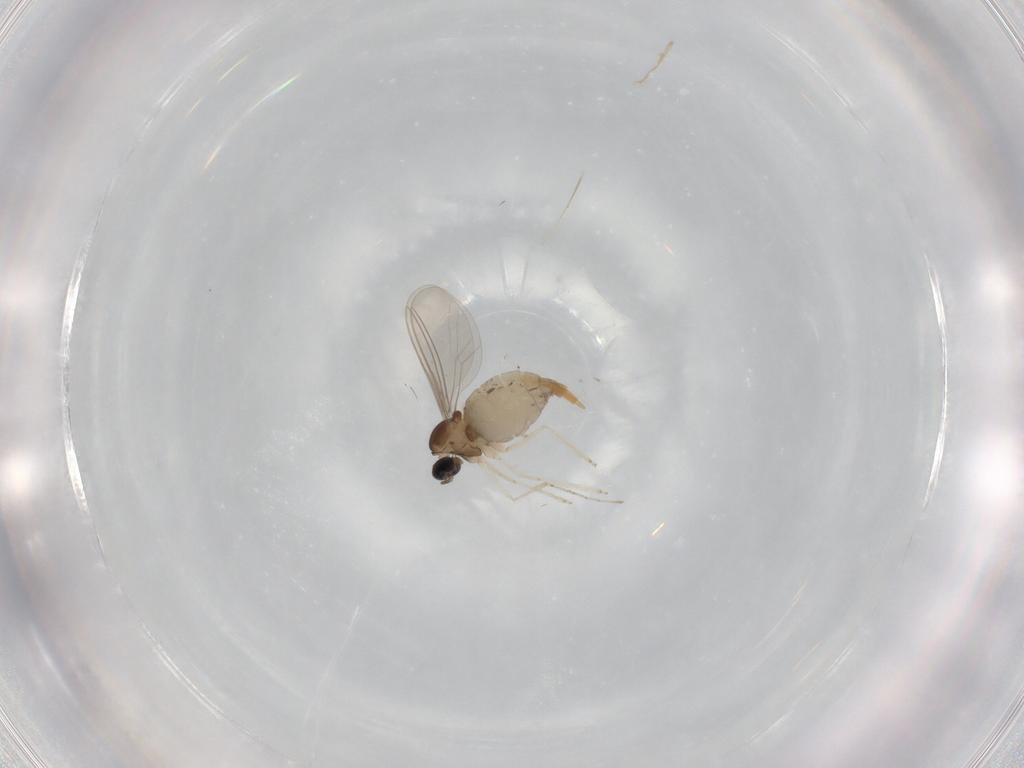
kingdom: Animalia
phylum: Arthropoda
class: Insecta
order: Diptera
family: Cecidomyiidae
